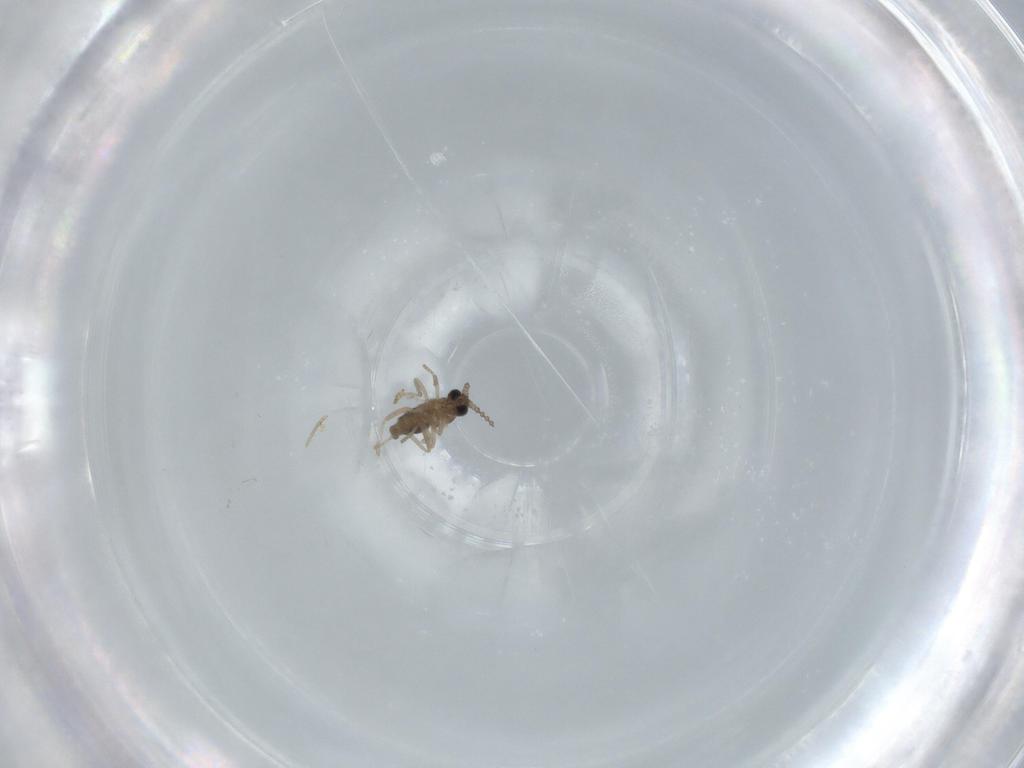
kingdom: Animalia
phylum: Arthropoda
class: Insecta
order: Diptera
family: Cecidomyiidae
